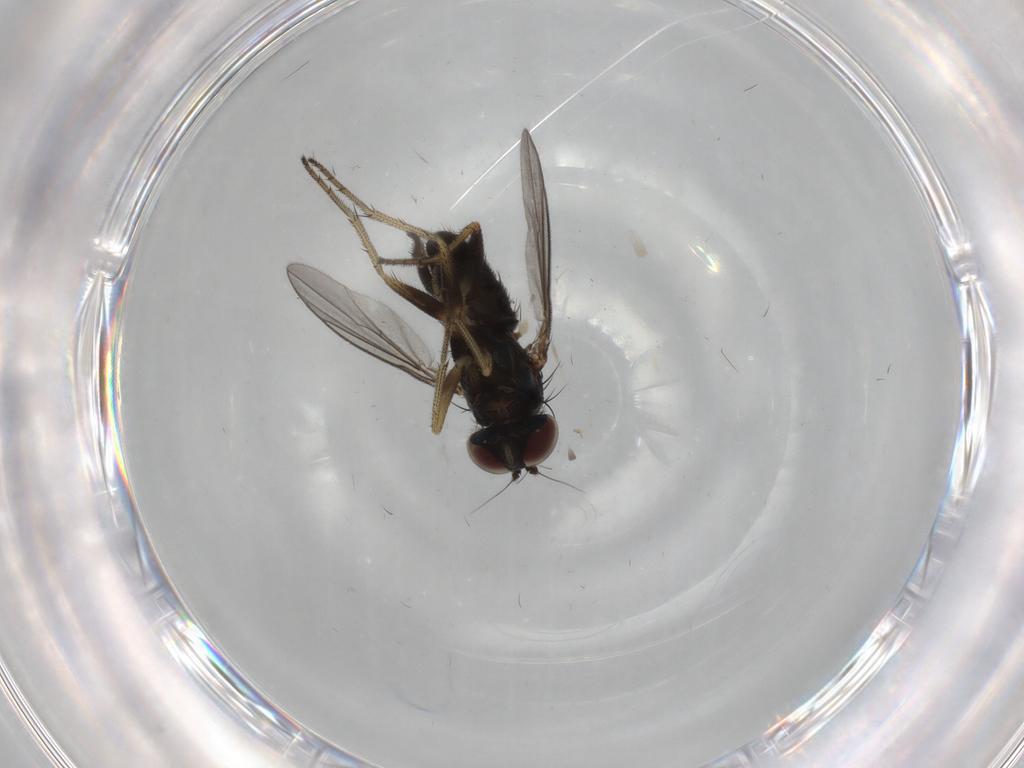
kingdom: Animalia
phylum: Arthropoda
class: Insecta
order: Diptera
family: Dolichopodidae
